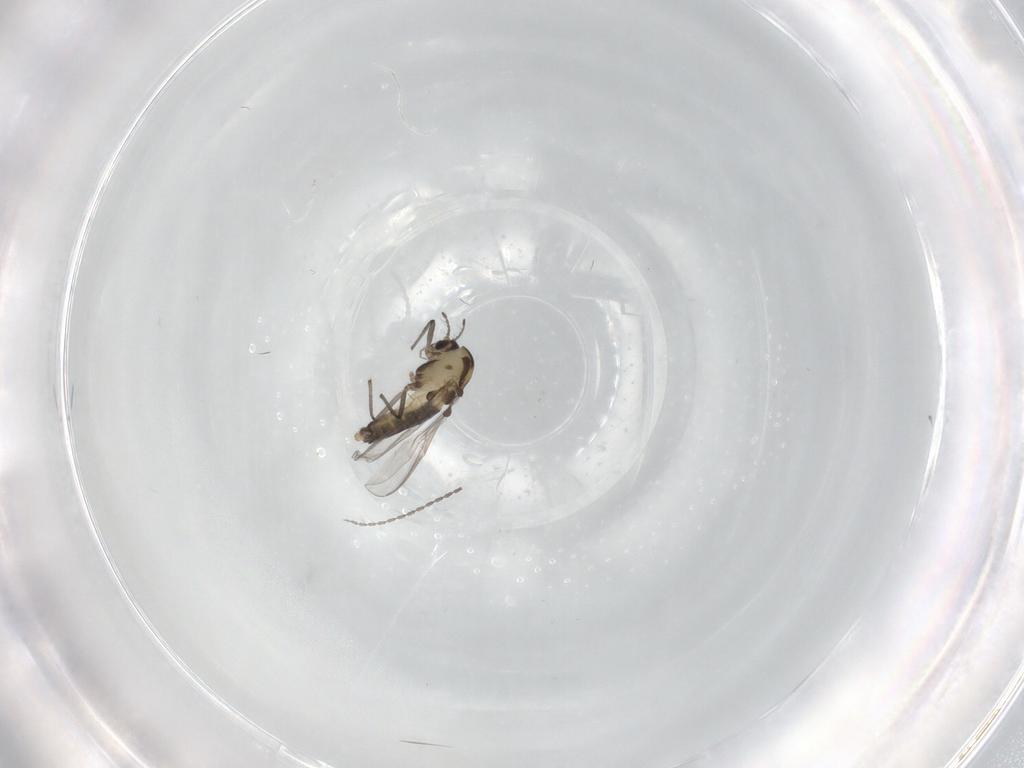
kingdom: Animalia
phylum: Arthropoda
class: Insecta
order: Diptera
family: Chironomidae
